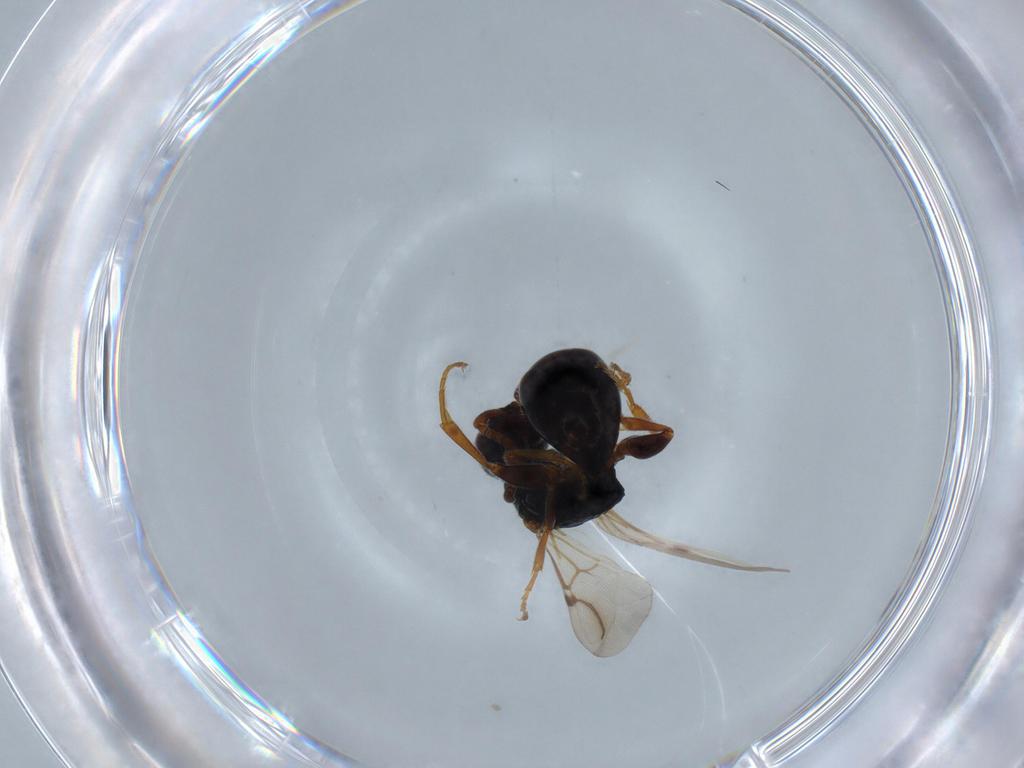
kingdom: Animalia
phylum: Arthropoda
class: Insecta
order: Hymenoptera
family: Bethylidae
